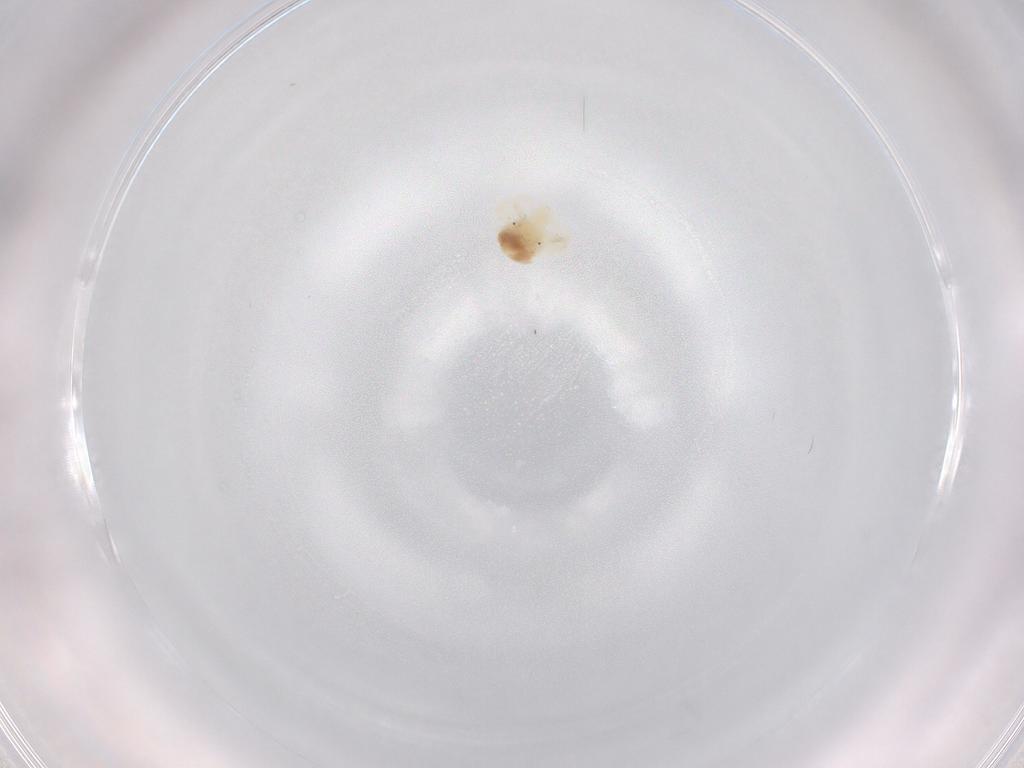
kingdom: Animalia
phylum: Arthropoda
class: Arachnida
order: Trombidiformes
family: Anystidae
